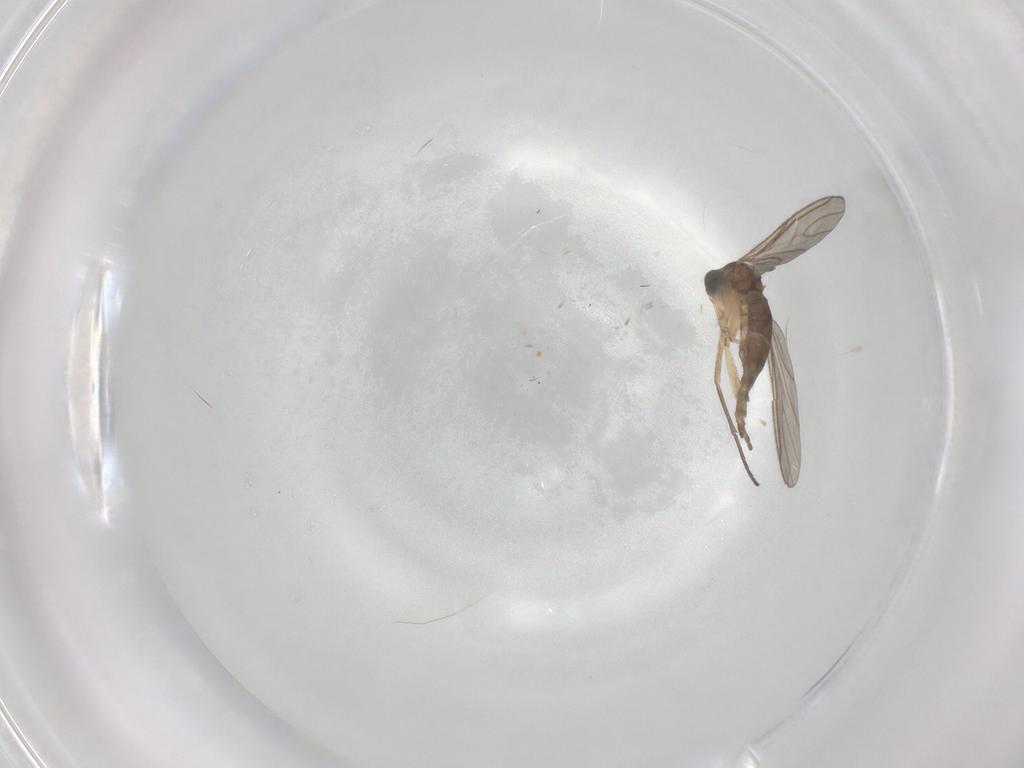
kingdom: Animalia
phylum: Arthropoda
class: Insecta
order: Diptera
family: Sciaridae
